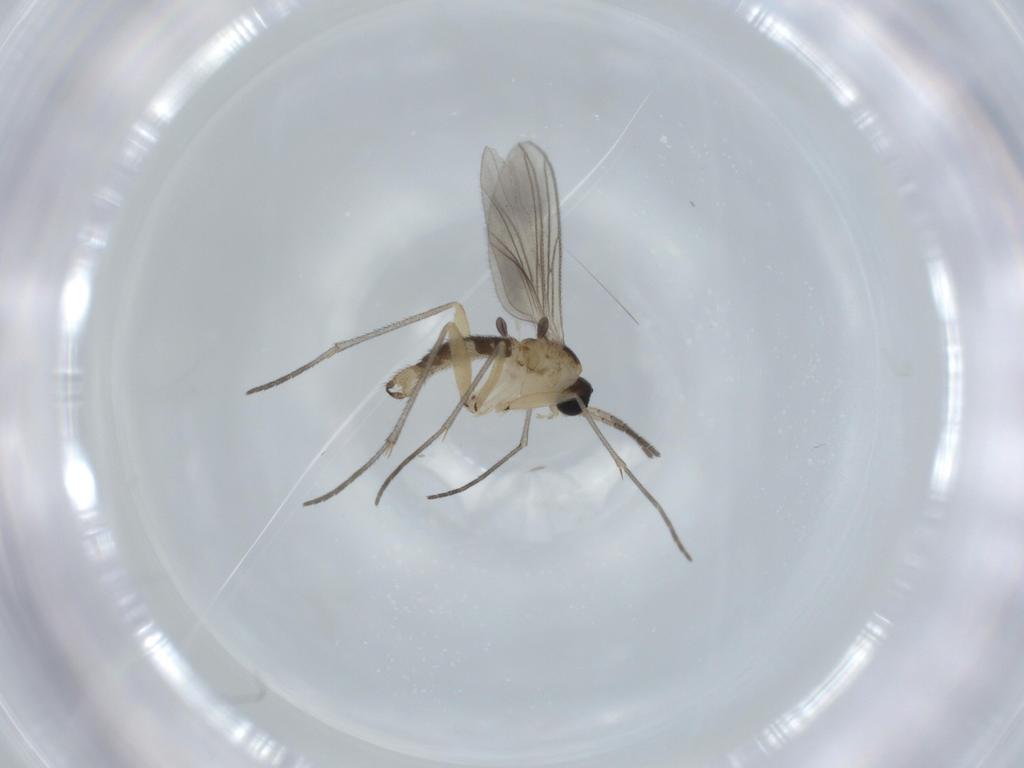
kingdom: Animalia
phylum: Arthropoda
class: Insecta
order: Diptera
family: Sciaridae
